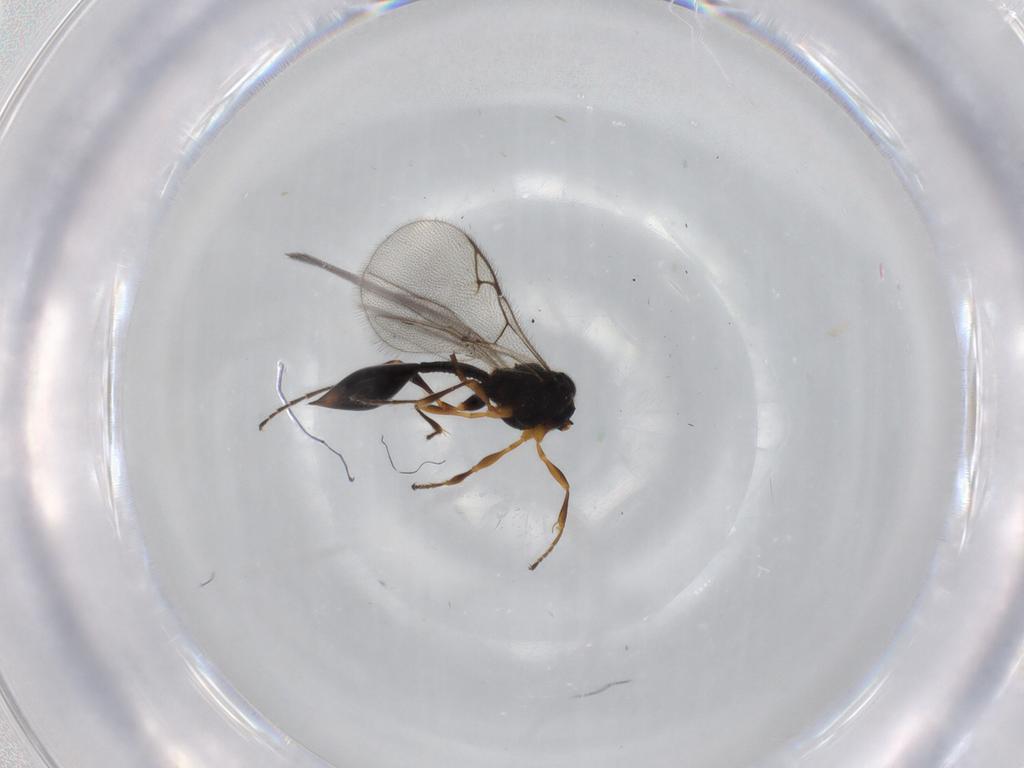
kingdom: Animalia
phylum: Arthropoda
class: Insecta
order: Hymenoptera
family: Diapriidae
